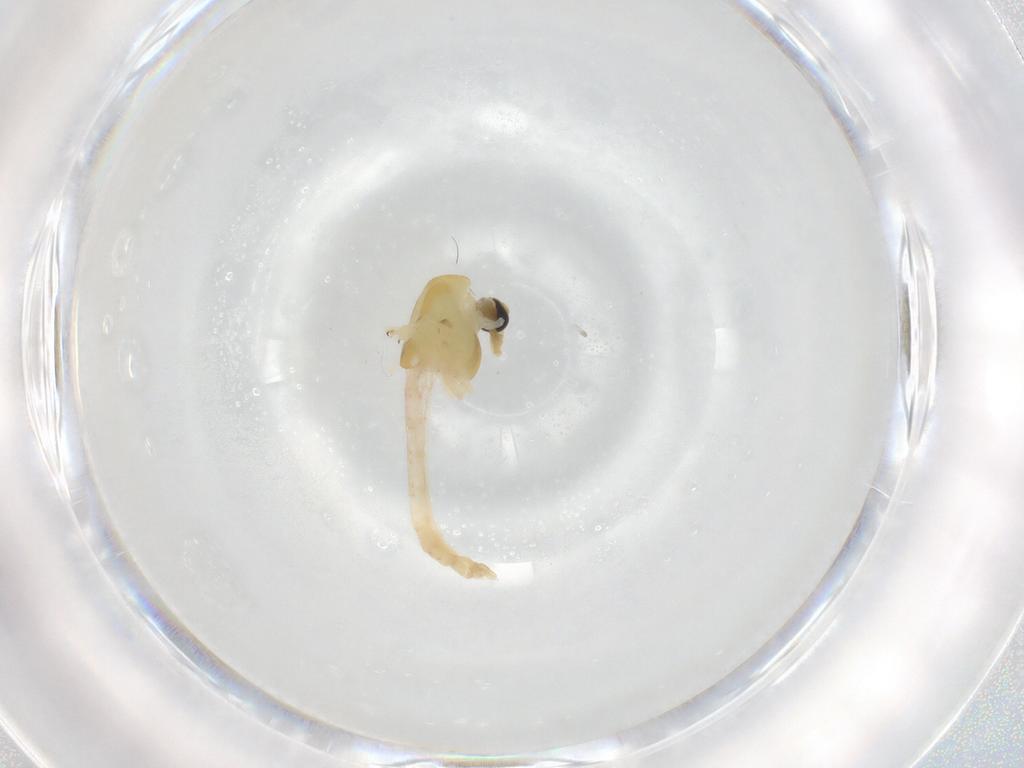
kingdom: Animalia
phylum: Arthropoda
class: Insecta
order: Diptera
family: Chironomidae
